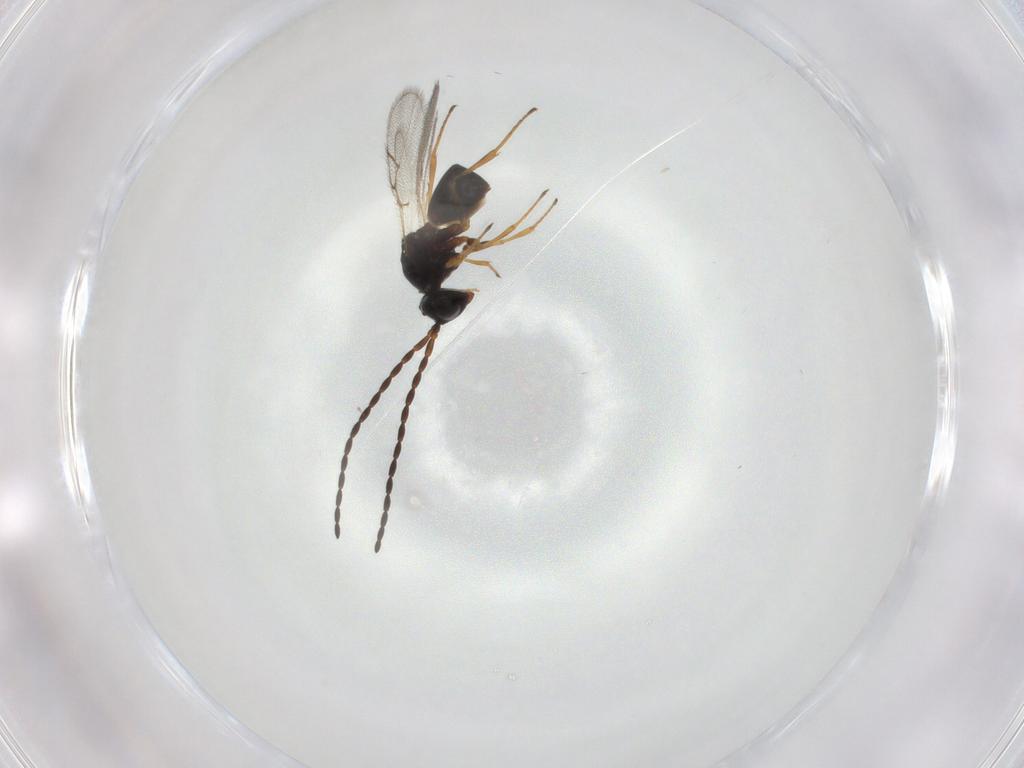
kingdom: Animalia
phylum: Arthropoda
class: Insecta
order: Hymenoptera
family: Figitidae
